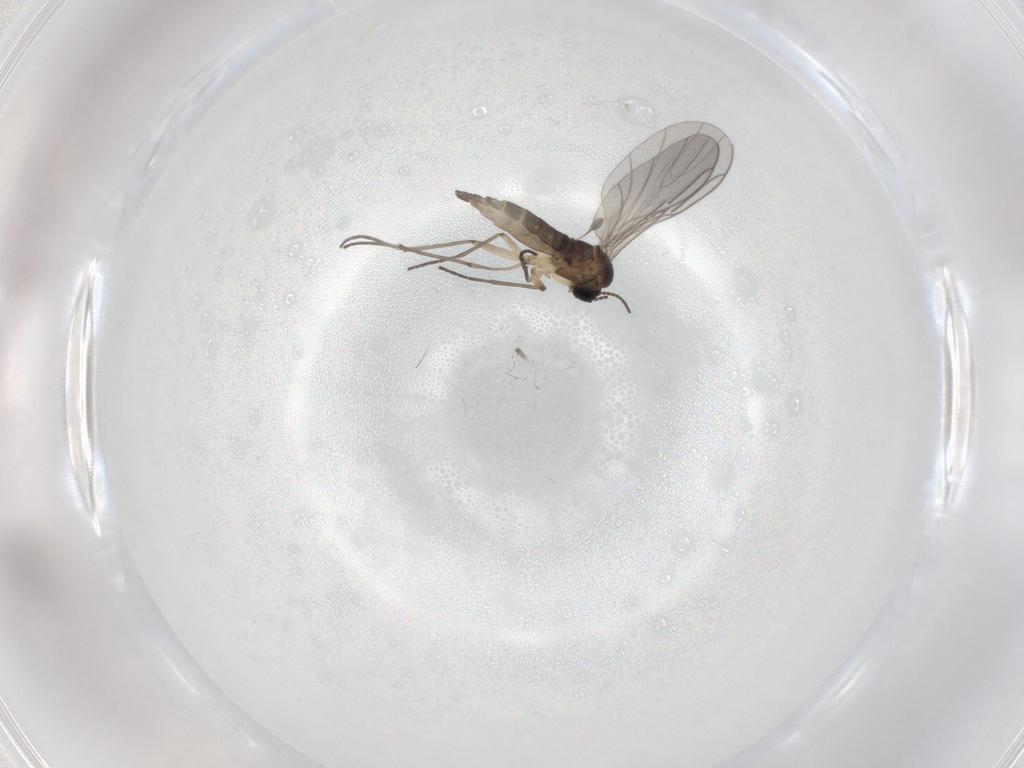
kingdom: Animalia
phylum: Arthropoda
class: Insecta
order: Diptera
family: Sciaridae
